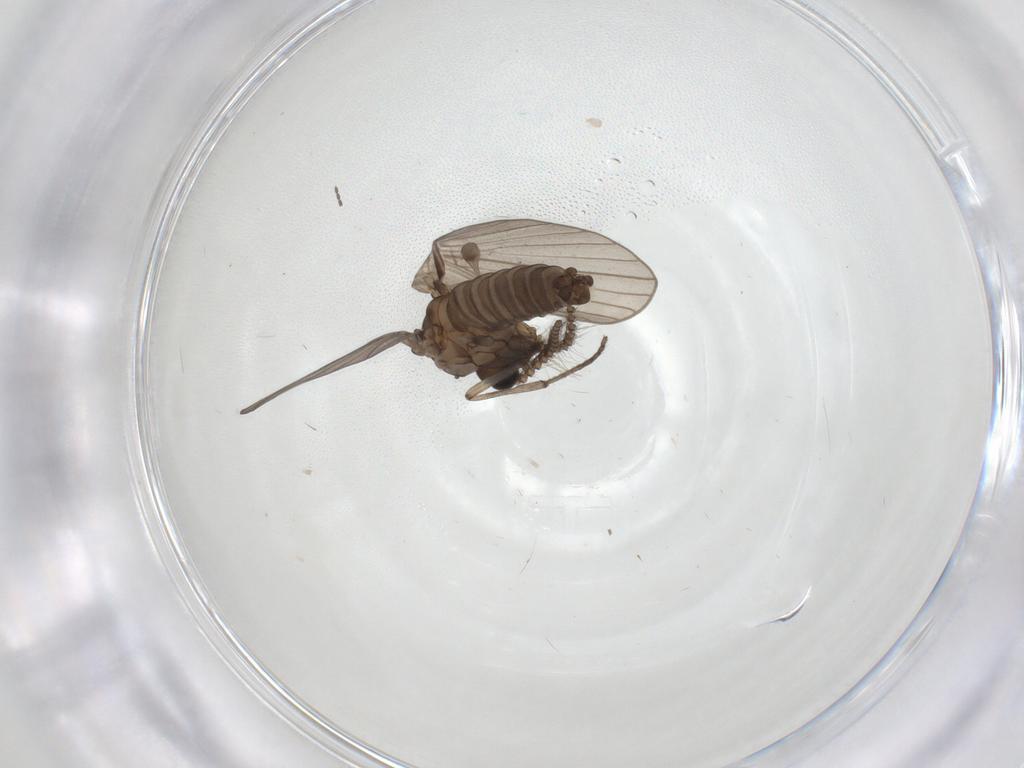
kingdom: Animalia
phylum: Arthropoda
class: Insecta
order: Diptera
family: Psychodidae
